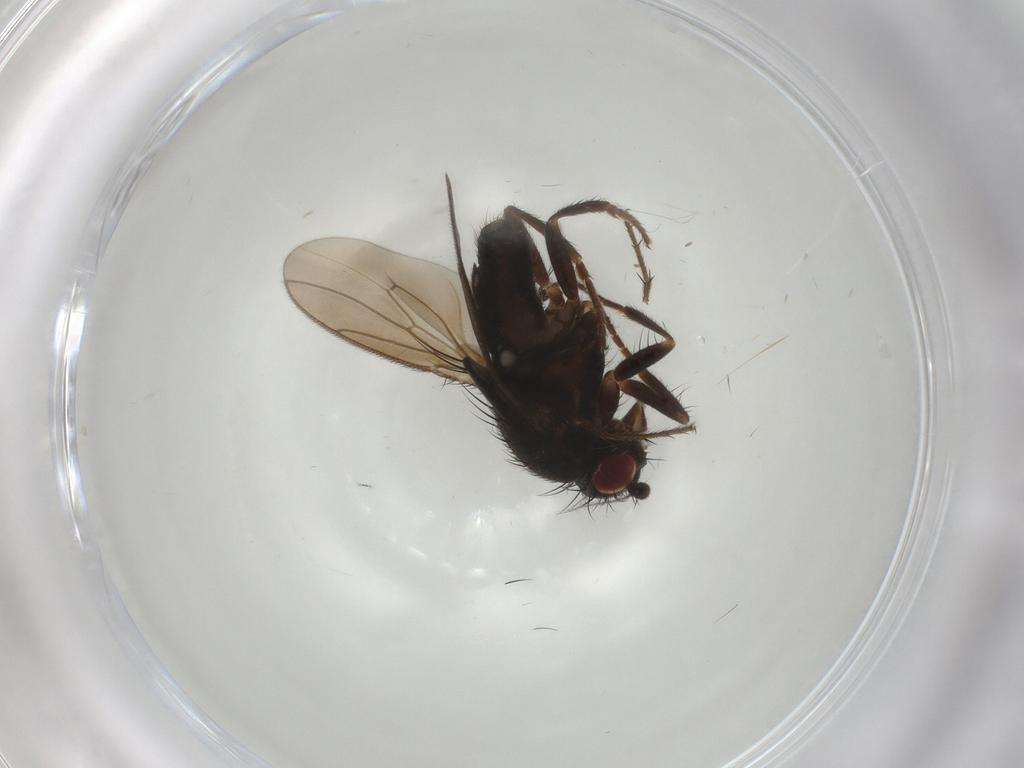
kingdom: Animalia
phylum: Arthropoda
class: Insecta
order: Diptera
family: Sphaeroceridae
